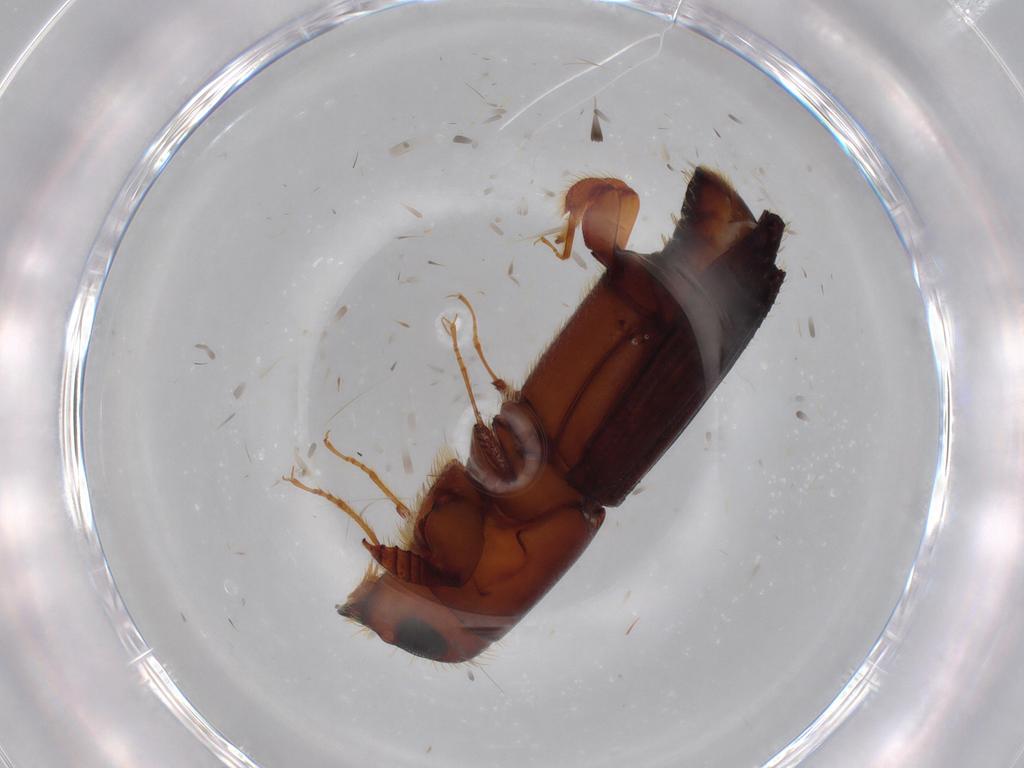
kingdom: Animalia
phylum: Arthropoda
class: Insecta
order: Coleoptera
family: Curculionidae
